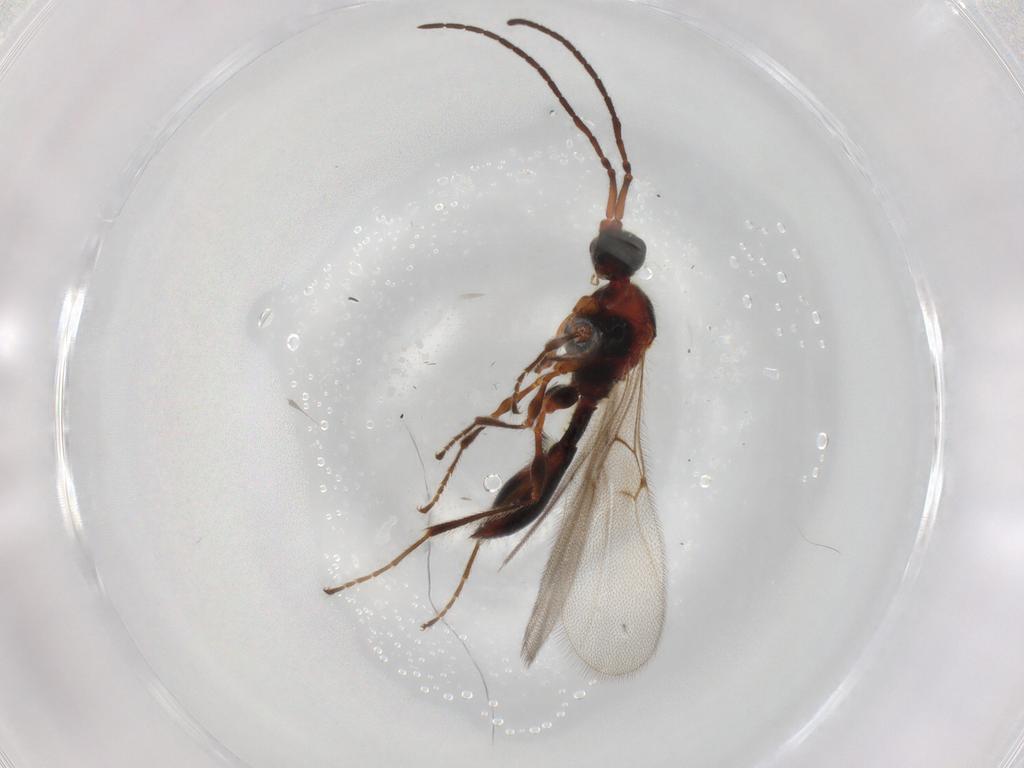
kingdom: Animalia
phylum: Arthropoda
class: Insecta
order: Hymenoptera
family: Diapriidae
